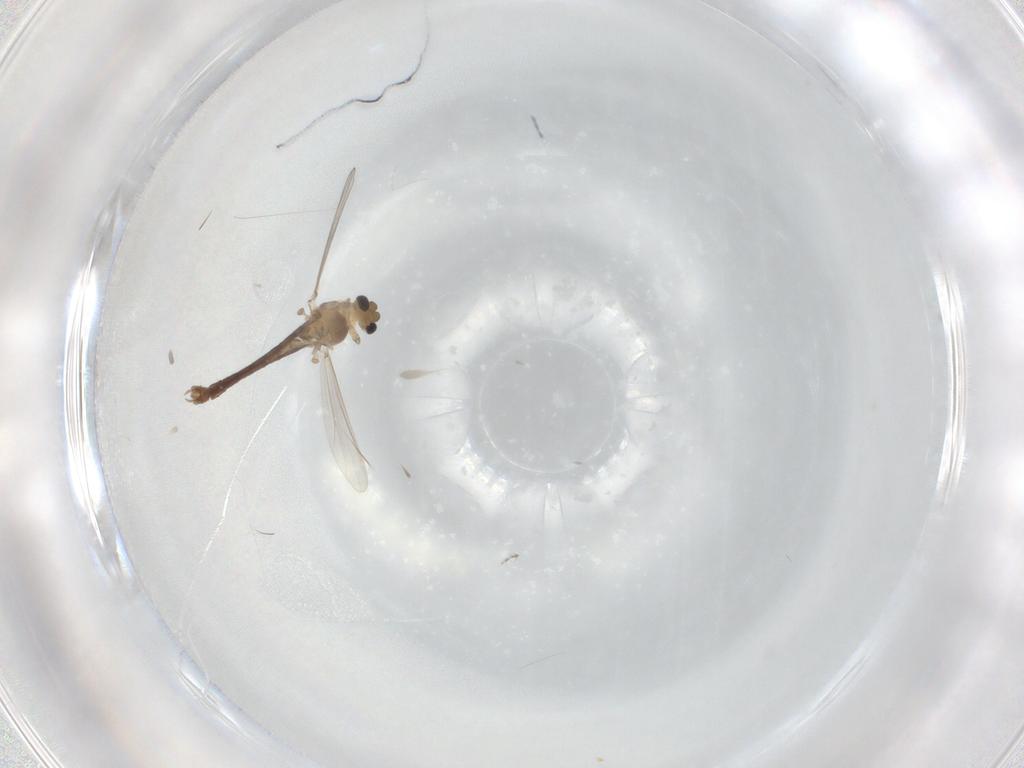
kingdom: Animalia
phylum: Arthropoda
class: Insecta
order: Diptera
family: Chironomidae
